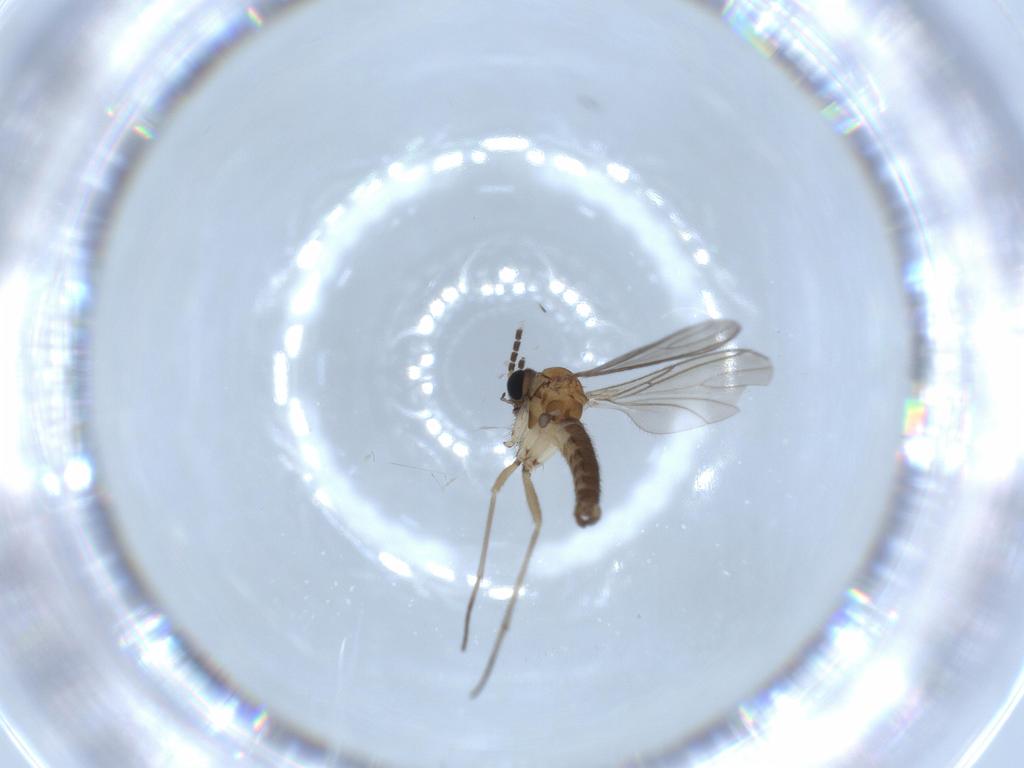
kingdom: Animalia
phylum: Arthropoda
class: Insecta
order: Diptera
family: Sciaridae
